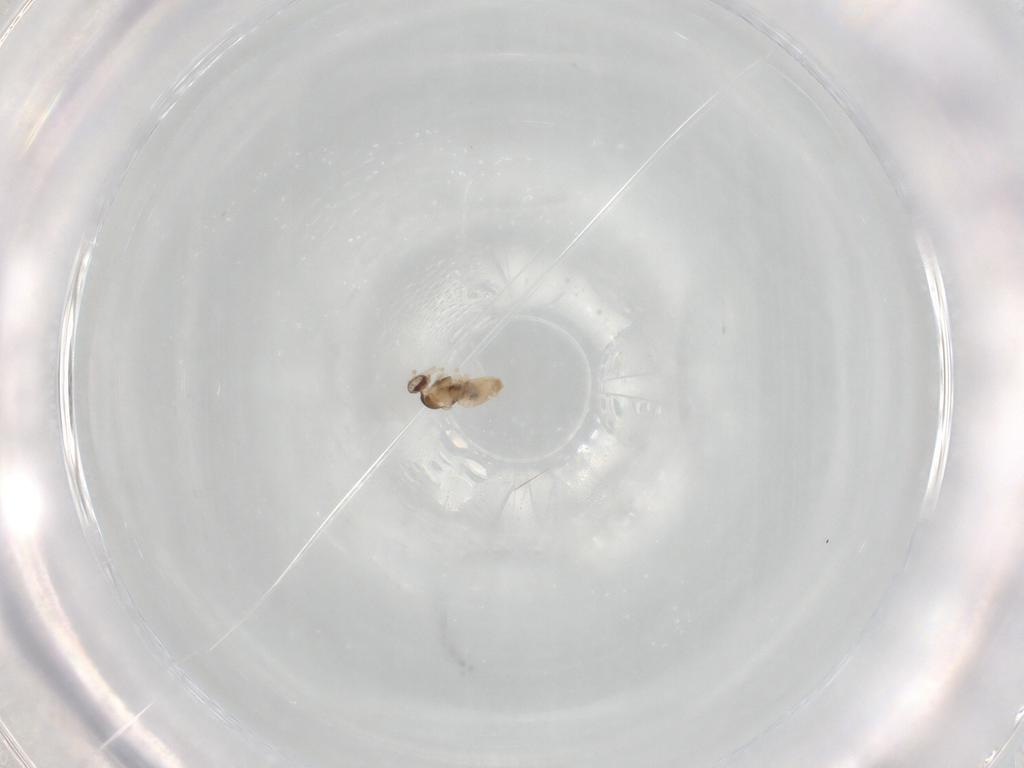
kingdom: Animalia
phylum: Arthropoda
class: Insecta
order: Diptera
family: Cecidomyiidae
